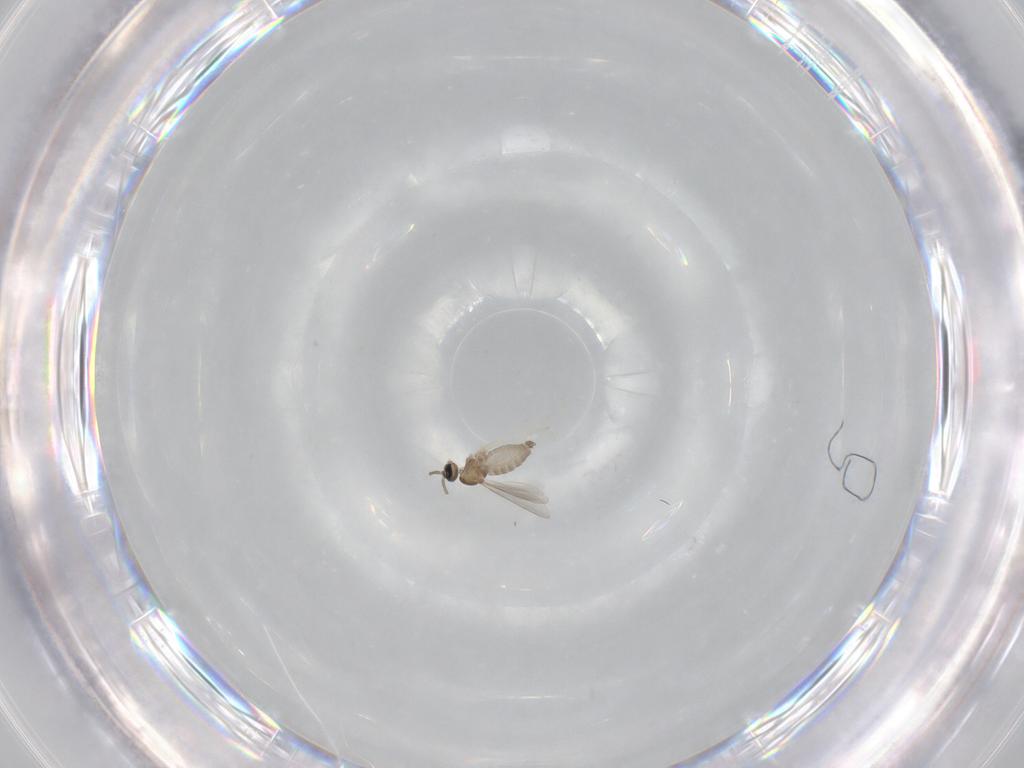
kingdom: Animalia
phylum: Arthropoda
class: Insecta
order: Diptera
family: Cecidomyiidae
